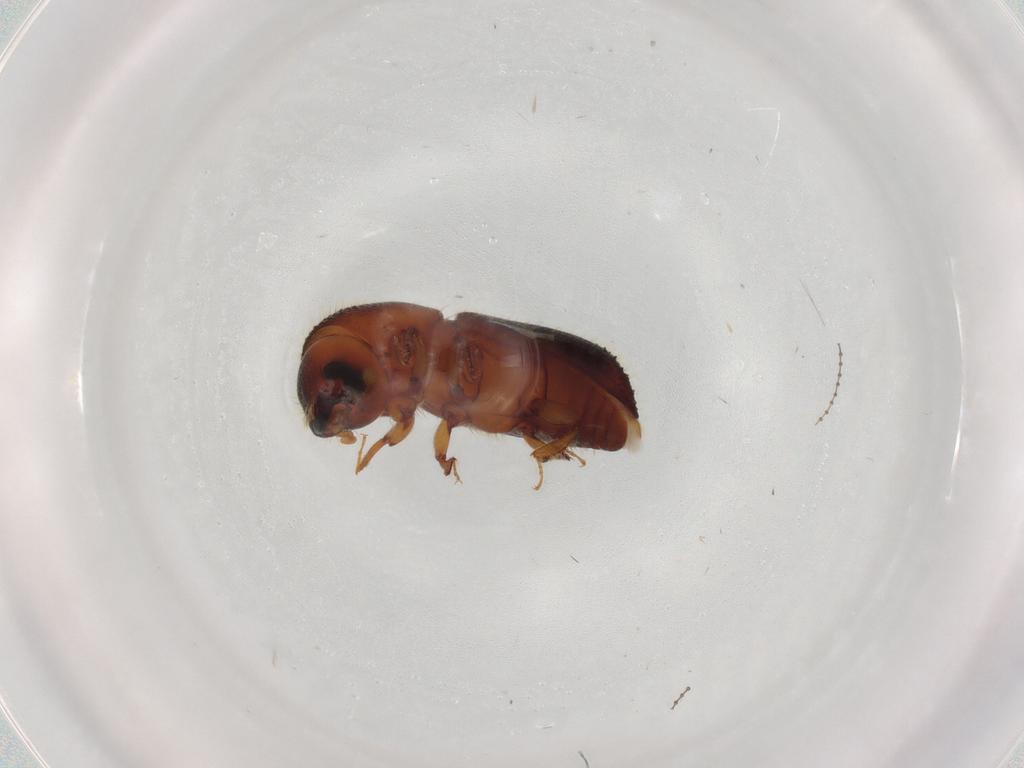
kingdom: Animalia
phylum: Arthropoda
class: Insecta
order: Coleoptera
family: Curculionidae
